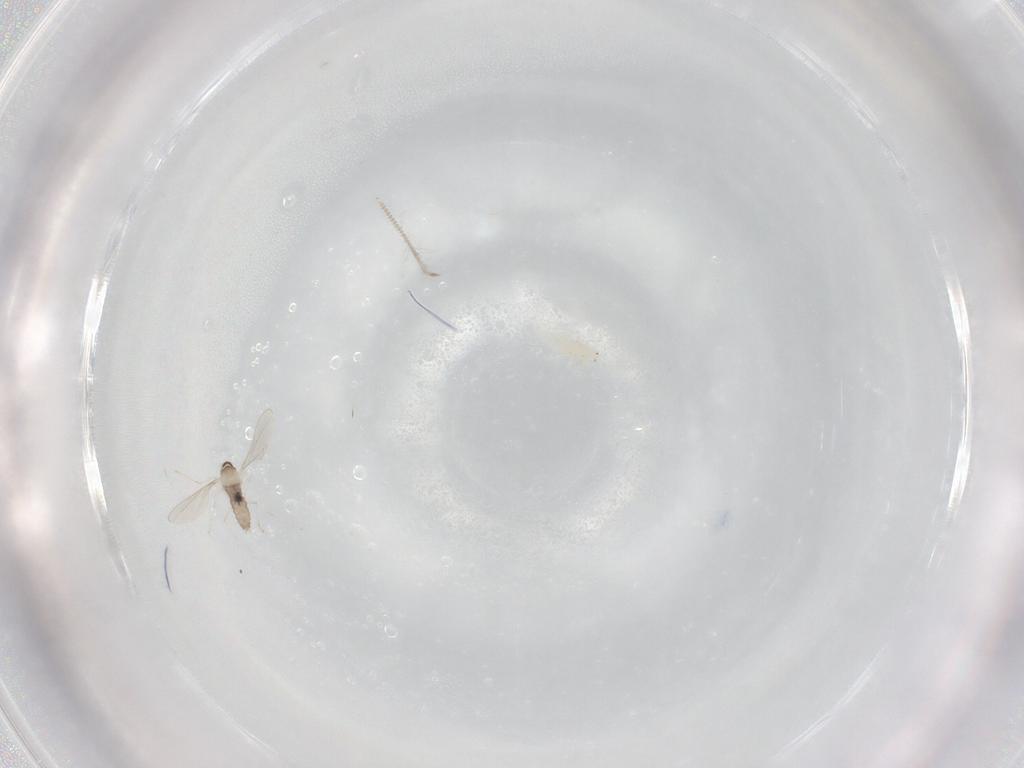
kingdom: Animalia
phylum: Arthropoda
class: Insecta
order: Diptera
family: Cecidomyiidae
